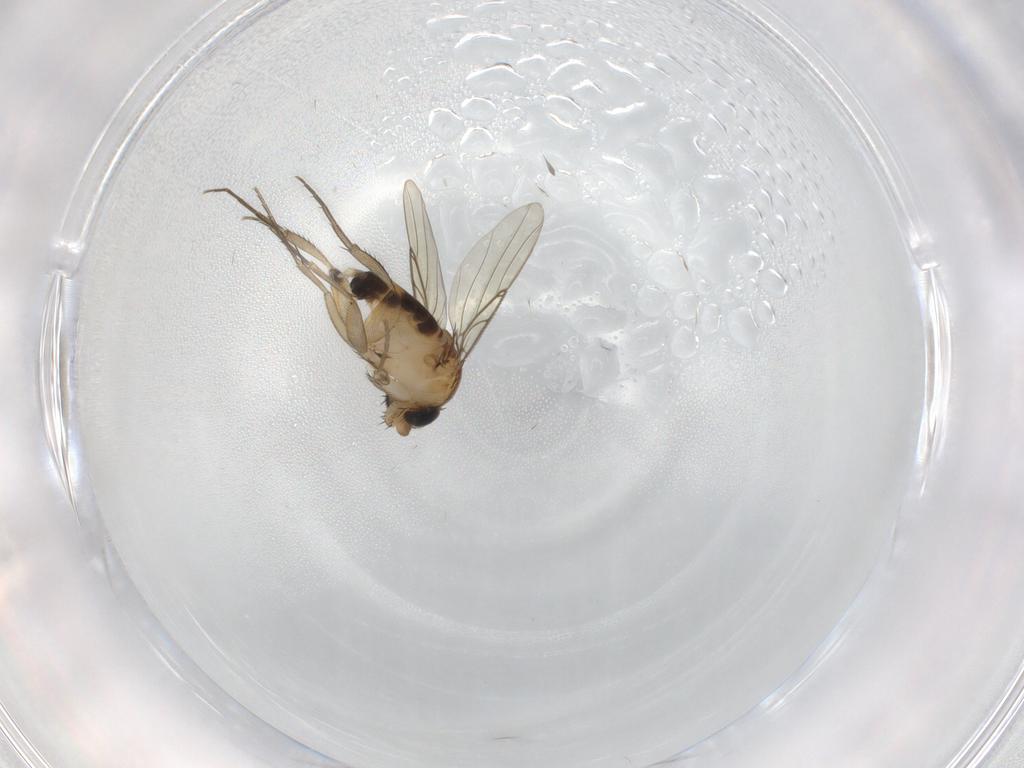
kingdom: Animalia
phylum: Arthropoda
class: Insecta
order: Diptera
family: Phoridae
